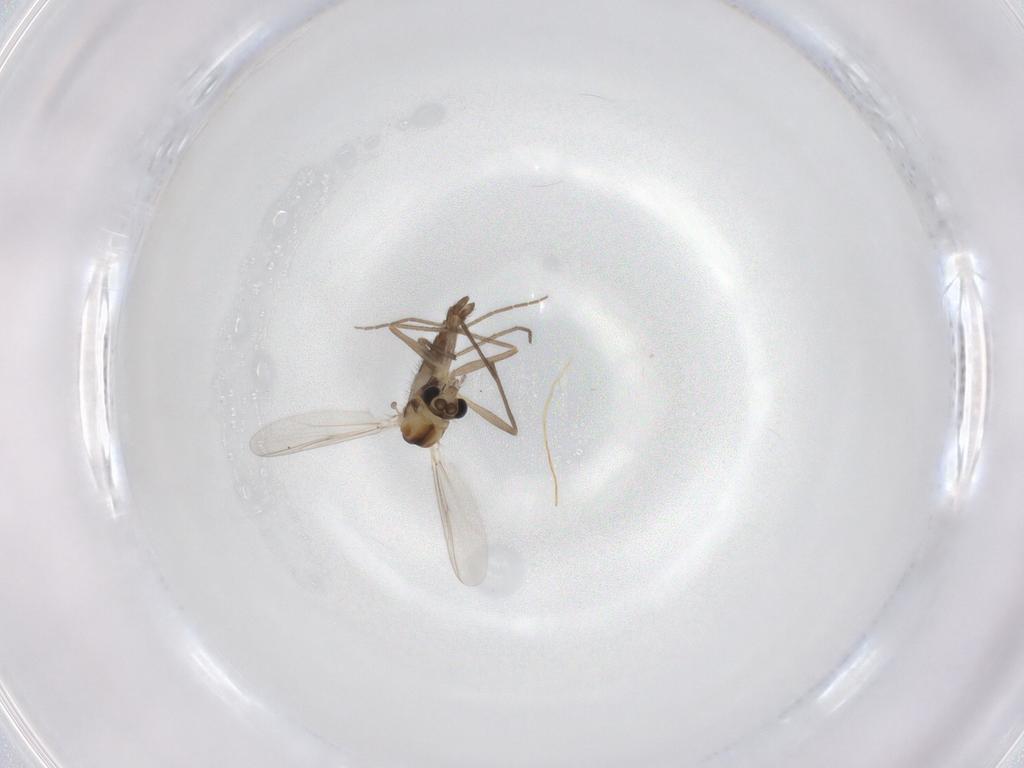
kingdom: Animalia
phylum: Arthropoda
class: Insecta
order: Diptera
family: Chironomidae
